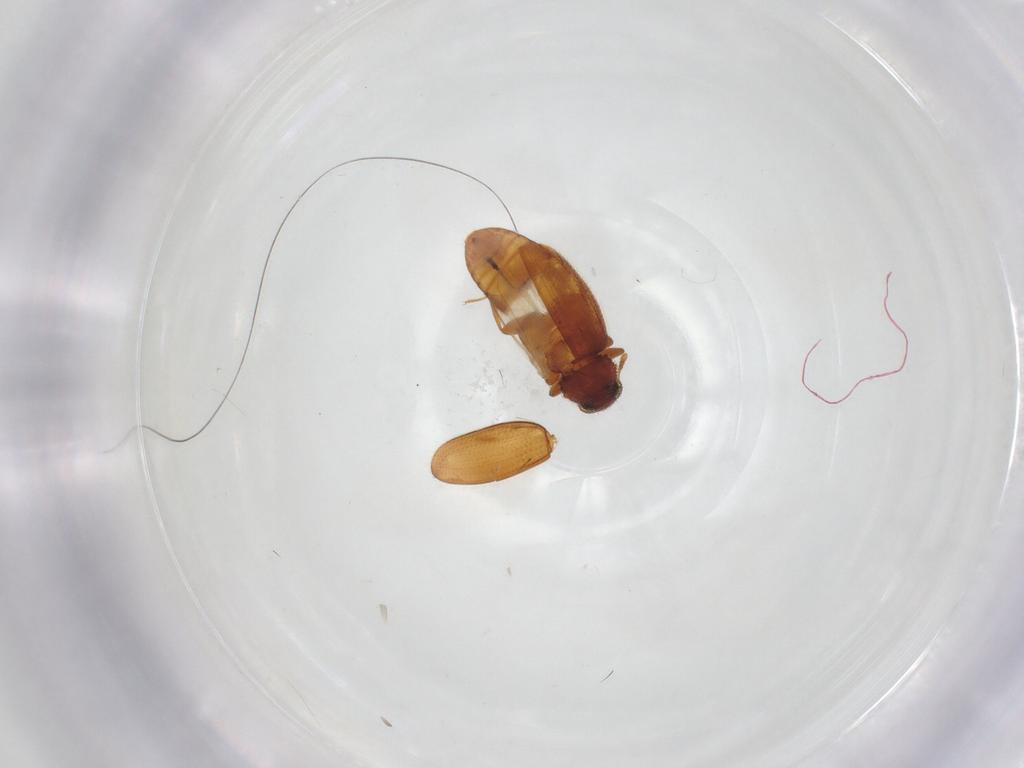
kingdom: Animalia
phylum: Arthropoda
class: Insecta
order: Coleoptera
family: Latridiidae
